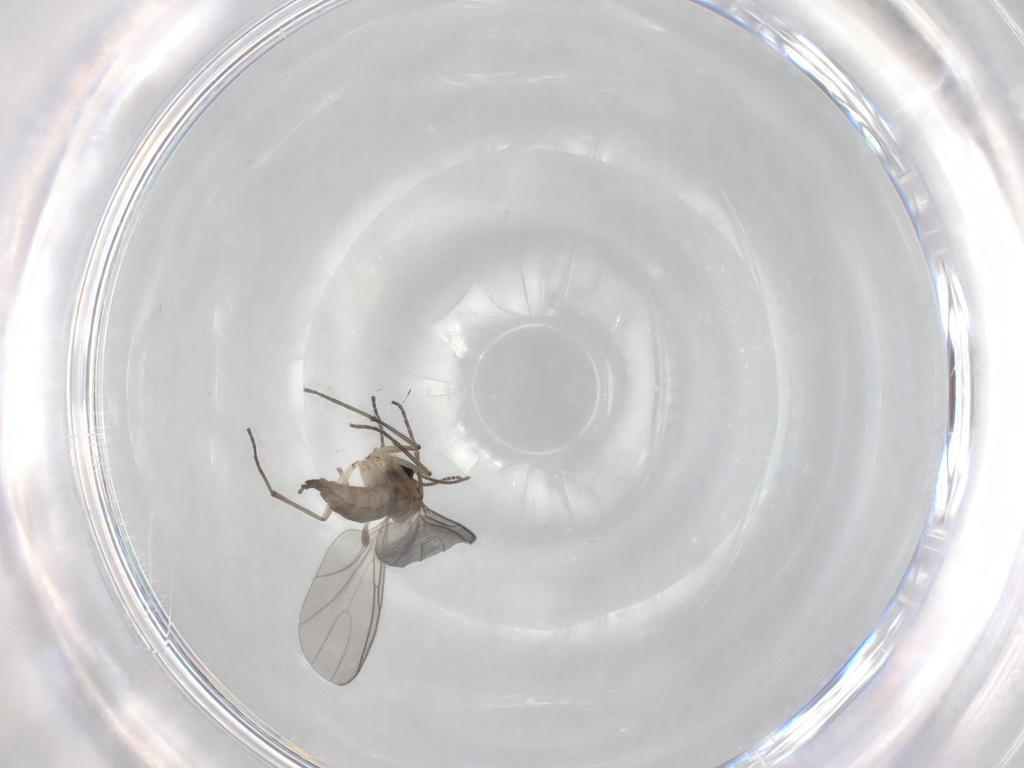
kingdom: Animalia
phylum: Arthropoda
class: Insecta
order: Diptera
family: Sciaridae
